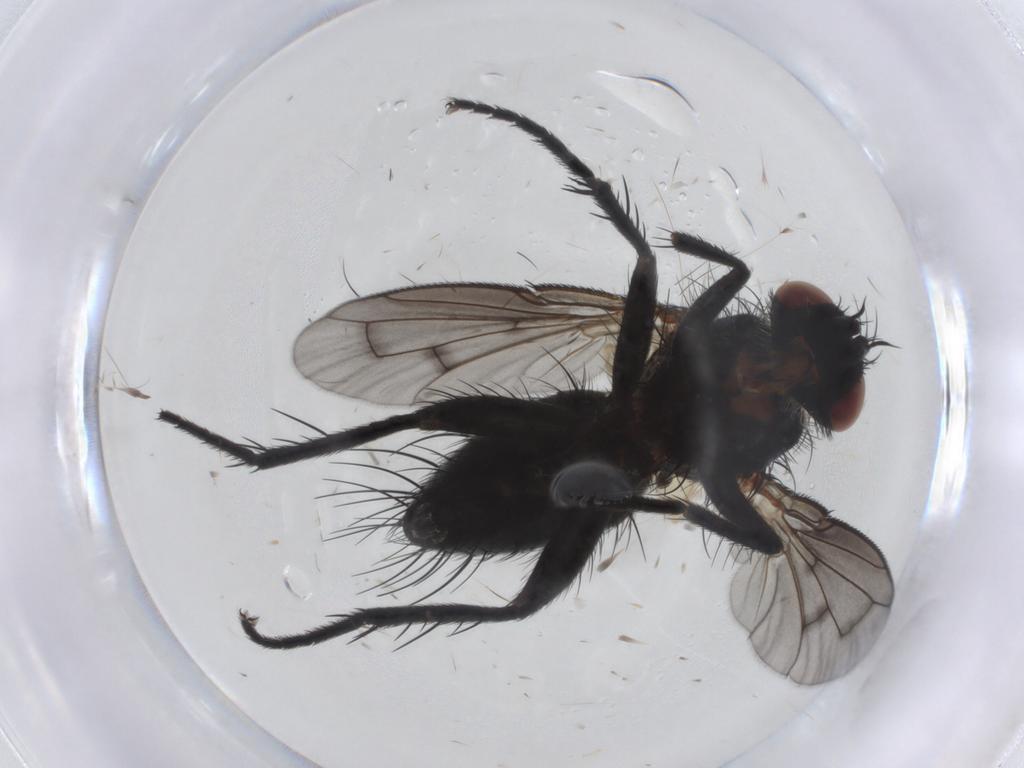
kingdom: Animalia
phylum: Arthropoda
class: Insecta
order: Diptera
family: Tachinidae
